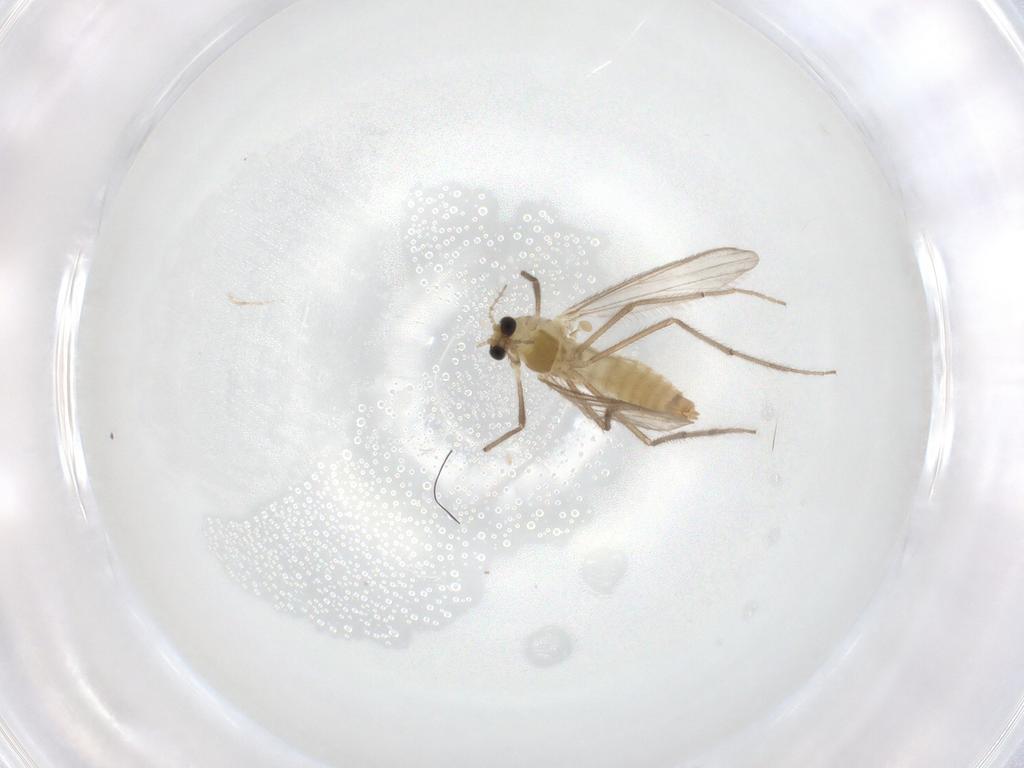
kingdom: Animalia
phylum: Arthropoda
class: Insecta
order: Diptera
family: Chironomidae
